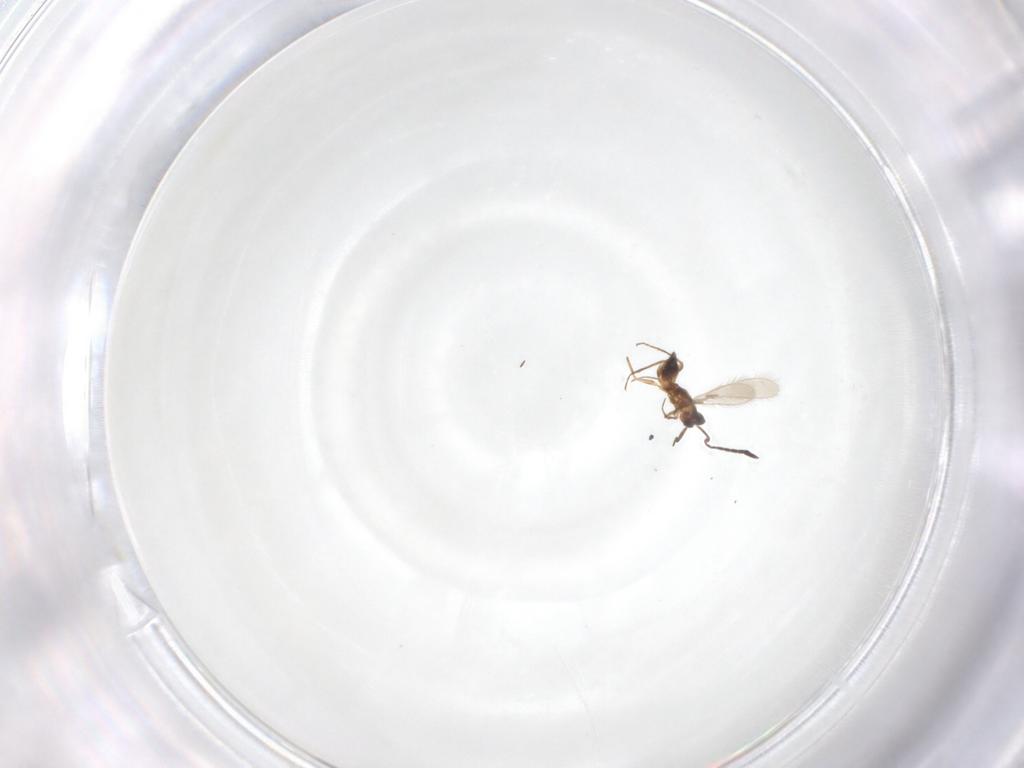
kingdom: Animalia
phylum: Arthropoda
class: Insecta
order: Hymenoptera
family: Mymaridae
